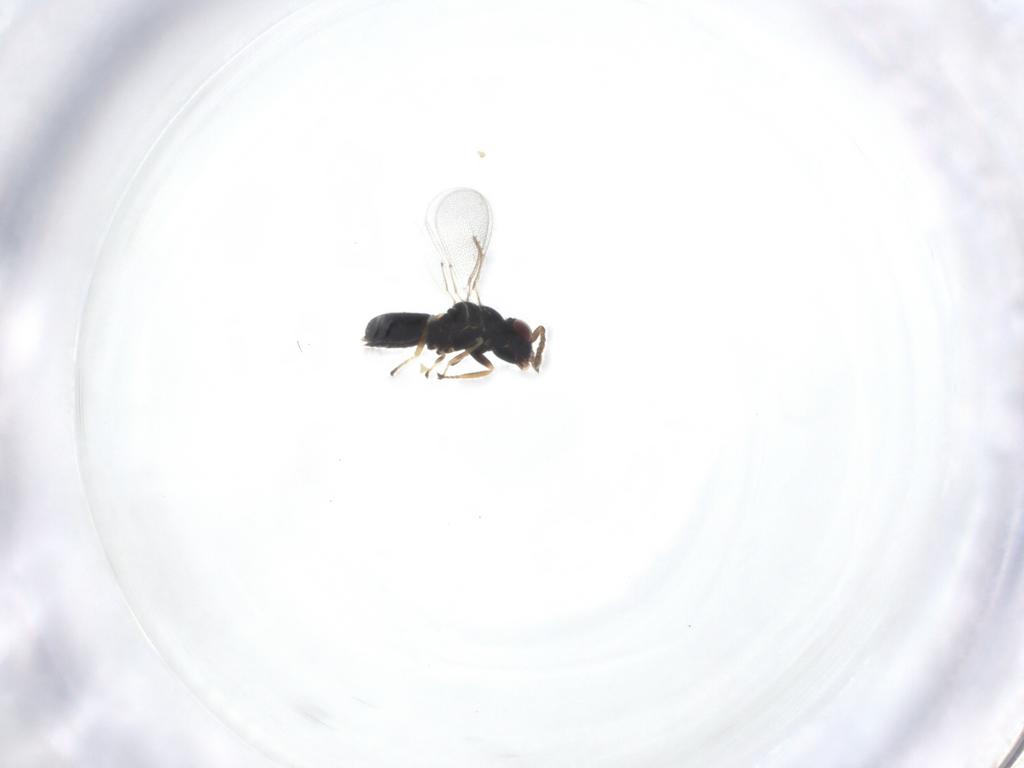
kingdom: Animalia
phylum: Arthropoda
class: Insecta
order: Hymenoptera
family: Eulophidae
